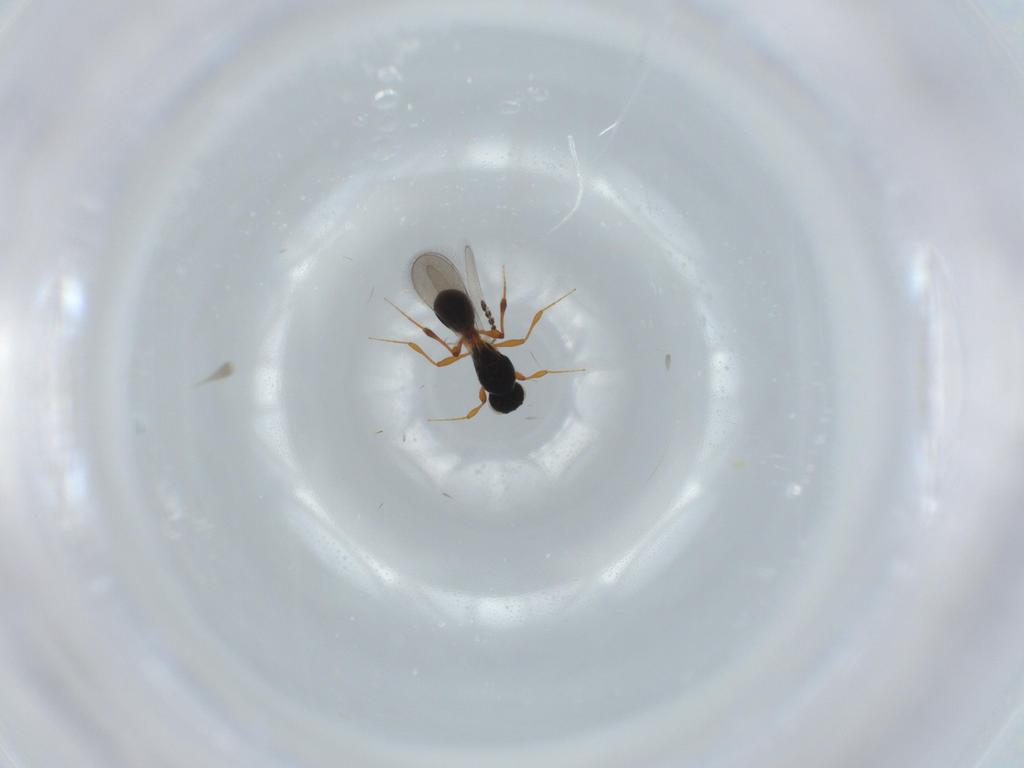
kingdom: Animalia
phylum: Arthropoda
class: Insecta
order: Hymenoptera
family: Platygastridae
